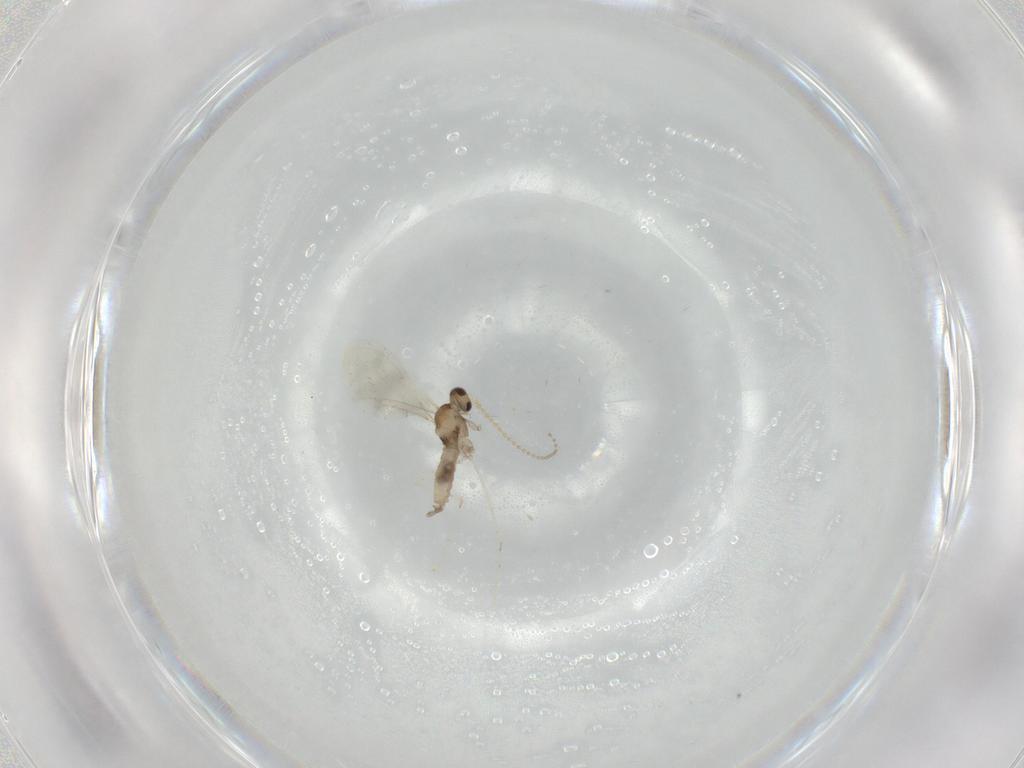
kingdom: Animalia
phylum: Arthropoda
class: Insecta
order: Diptera
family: Cecidomyiidae
